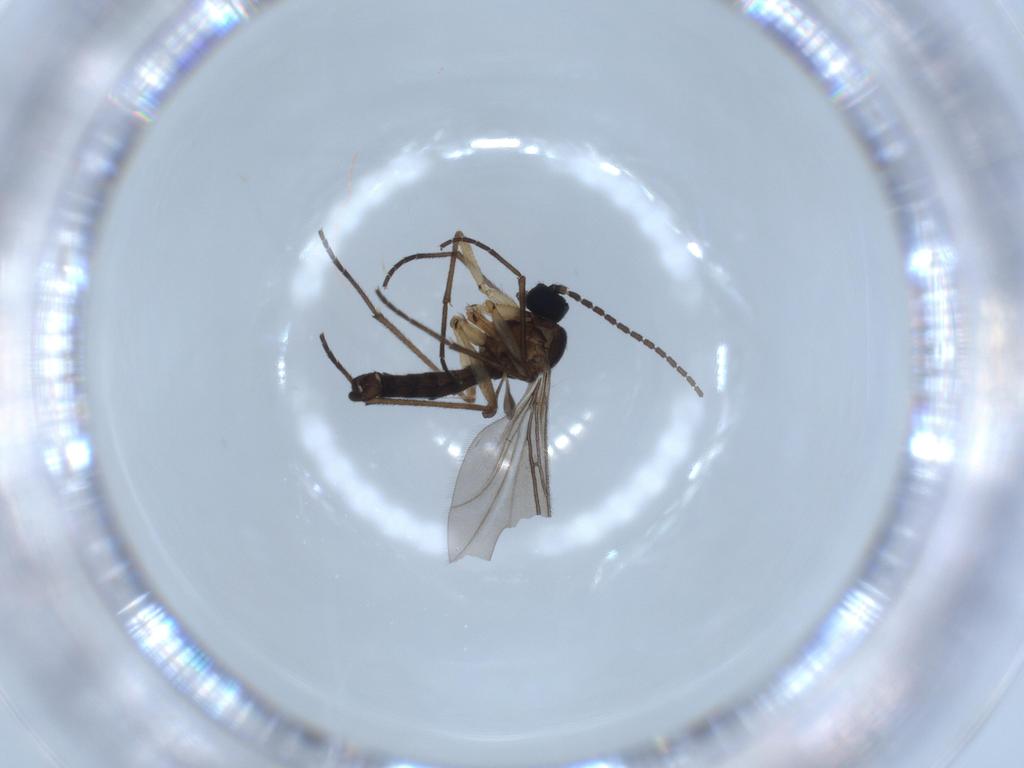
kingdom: Animalia
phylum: Arthropoda
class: Insecta
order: Diptera
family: Sciaridae
